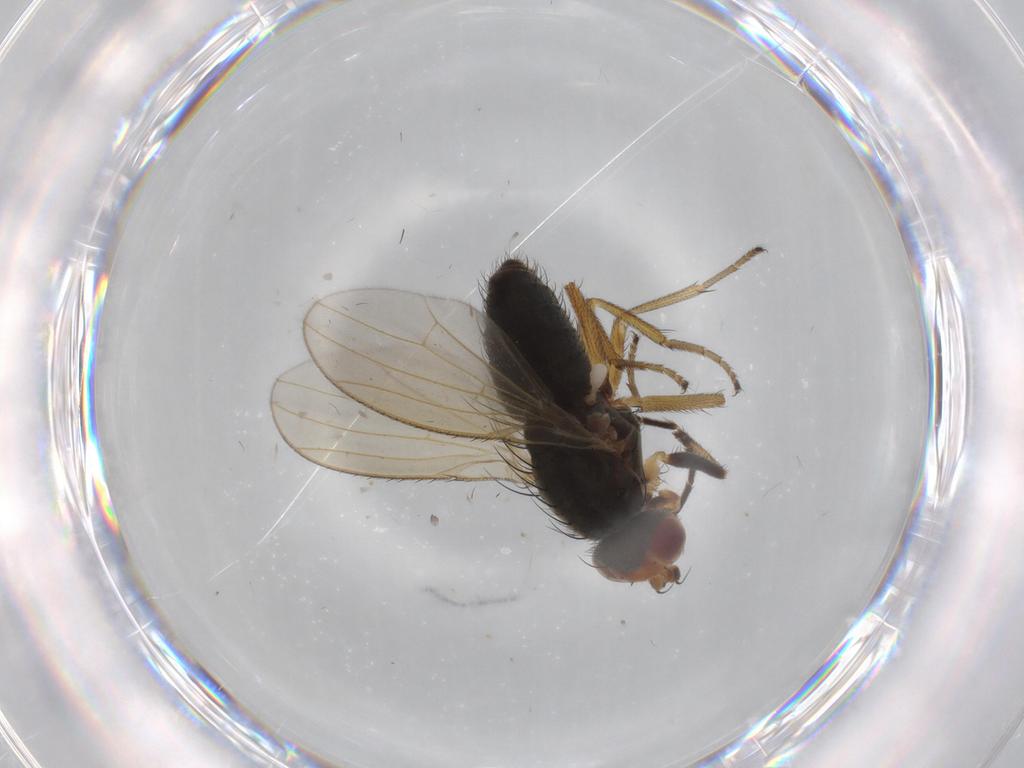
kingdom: Animalia
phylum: Arthropoda
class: Insecta
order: Diptera
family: Ulidiidae
